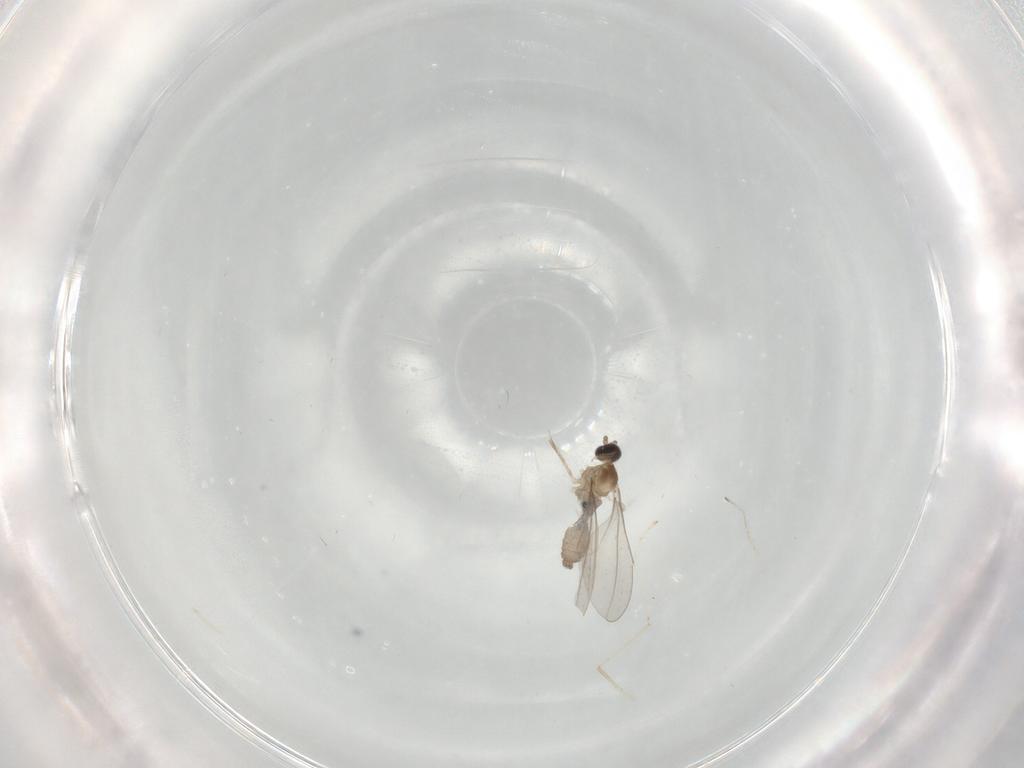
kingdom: Animalia
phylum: Arthropoda
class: Insecta
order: Diptera
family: Cecidomyiidae
